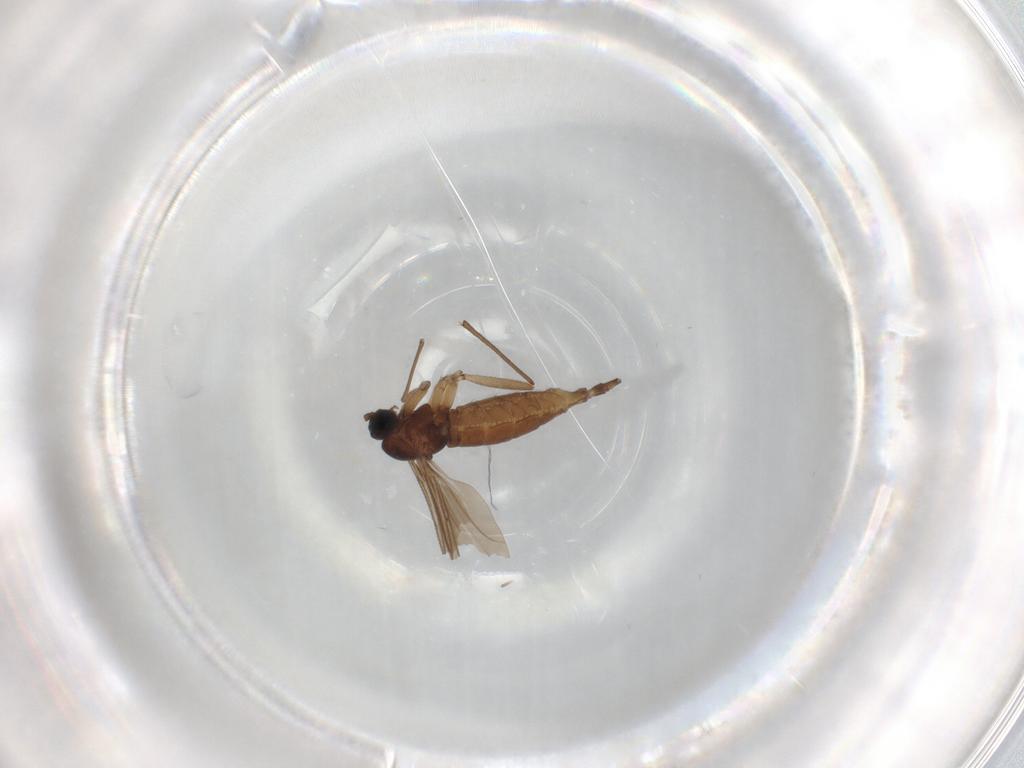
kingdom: Animalia
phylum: Arthropoda
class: Insecta
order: Diptera
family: Sciaridae
